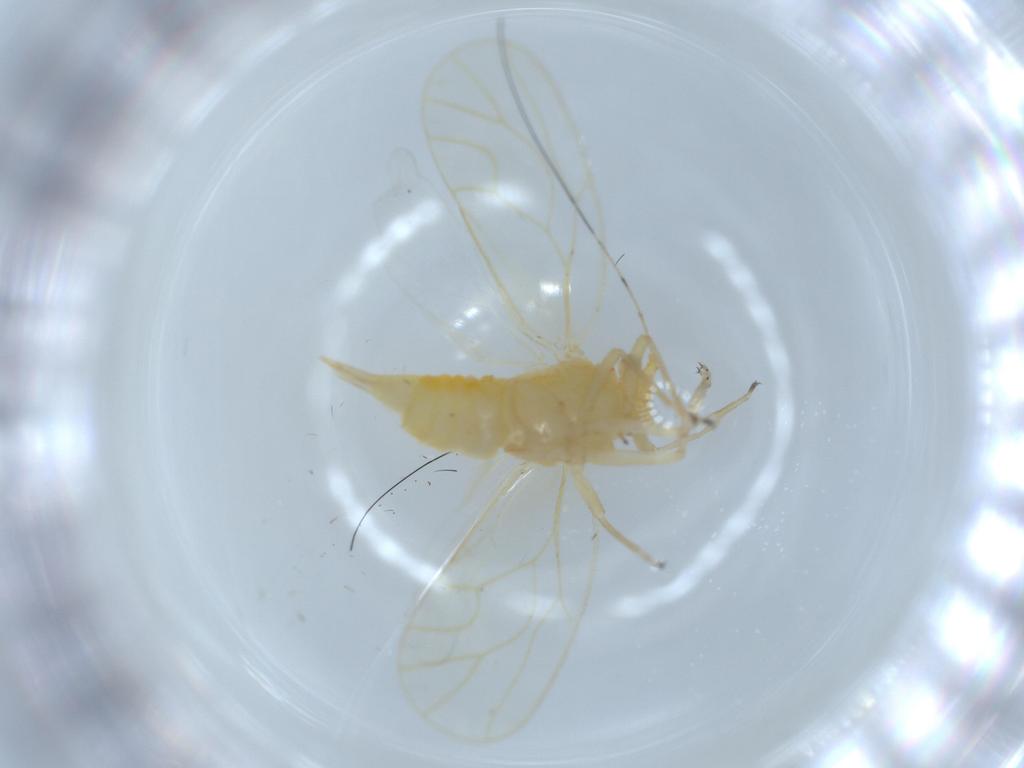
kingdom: Animalia
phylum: Arthropoda
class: Insecta
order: Hemiptera
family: Psyllidae
